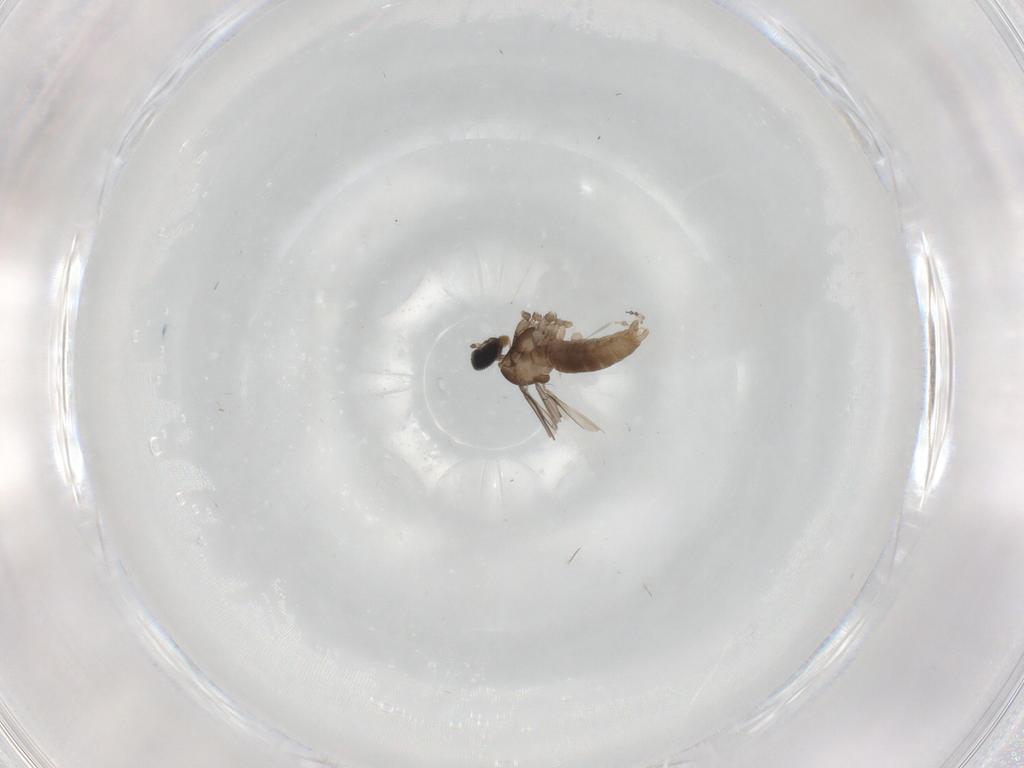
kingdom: Animalia
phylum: Arthropoda
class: Insecta
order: Diptera
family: Cecidomyiidae
